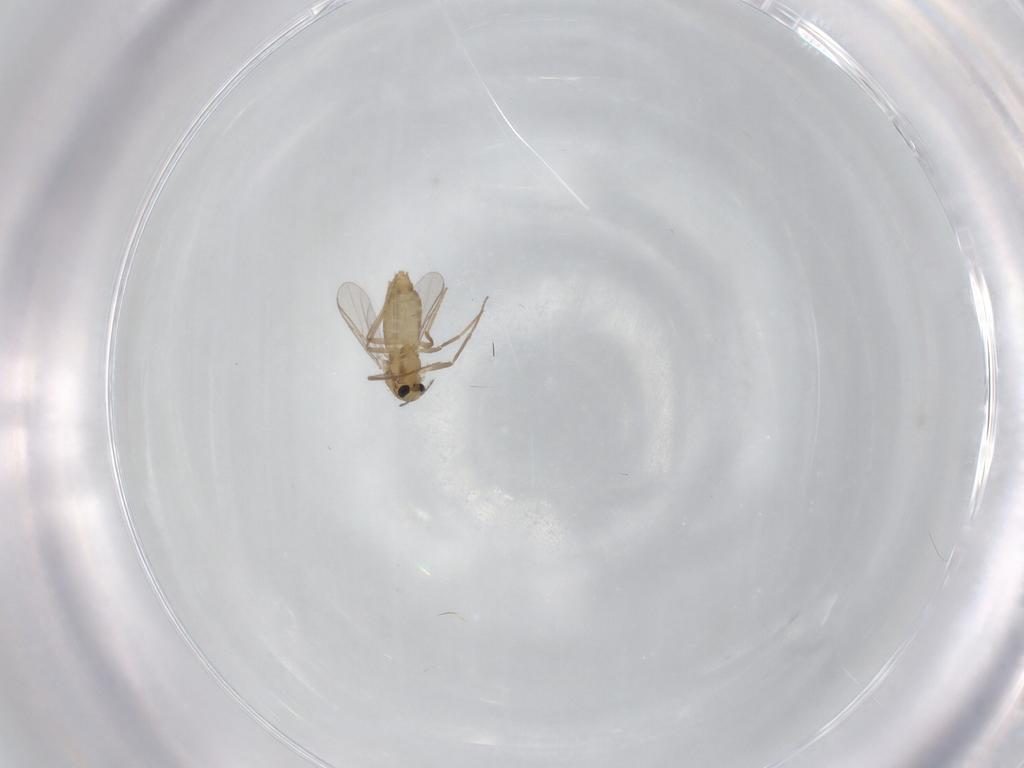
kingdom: Animalia
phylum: Arthropoda
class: Insecta
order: Diptera
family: Chironomidae
